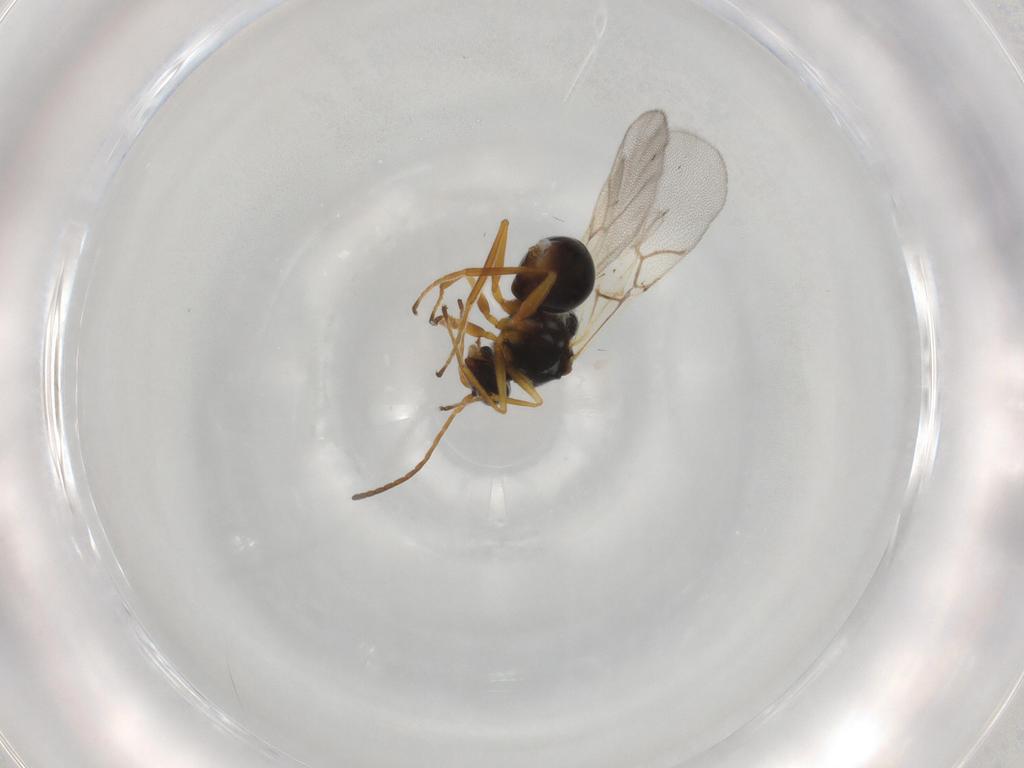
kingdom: Animalia
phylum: Arthropoda
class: Insecta
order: Hymenoptera
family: Figitidae
